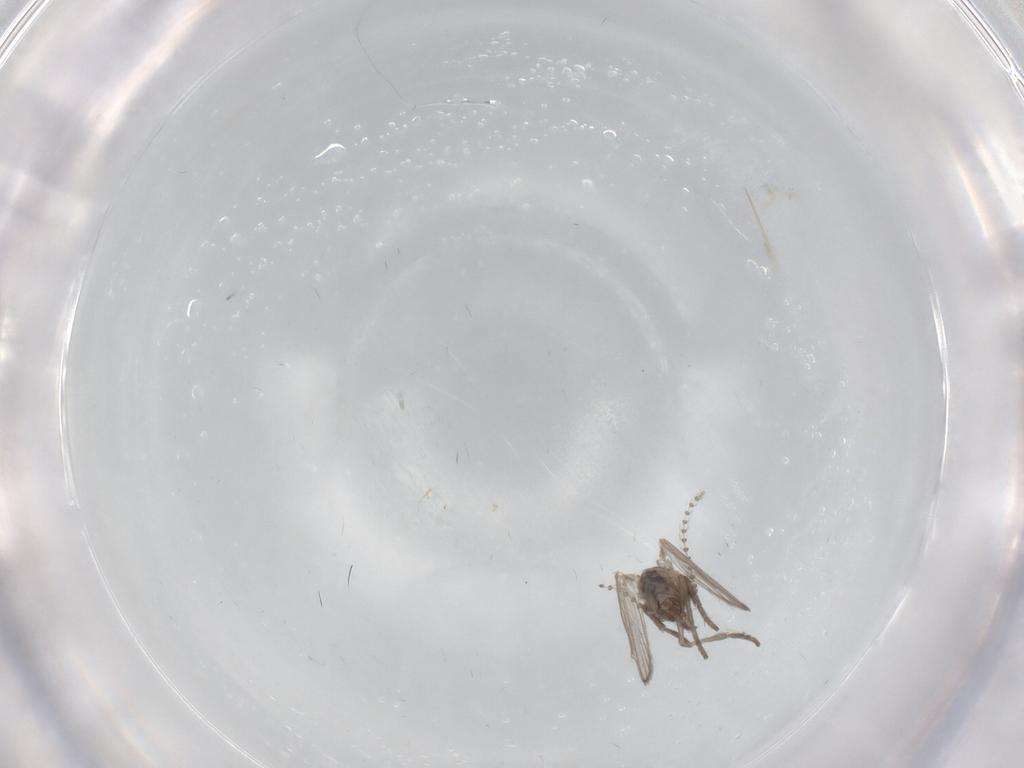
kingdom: Animalia
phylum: Arthropoda
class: Insecta
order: Diptera
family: Psychodidae
